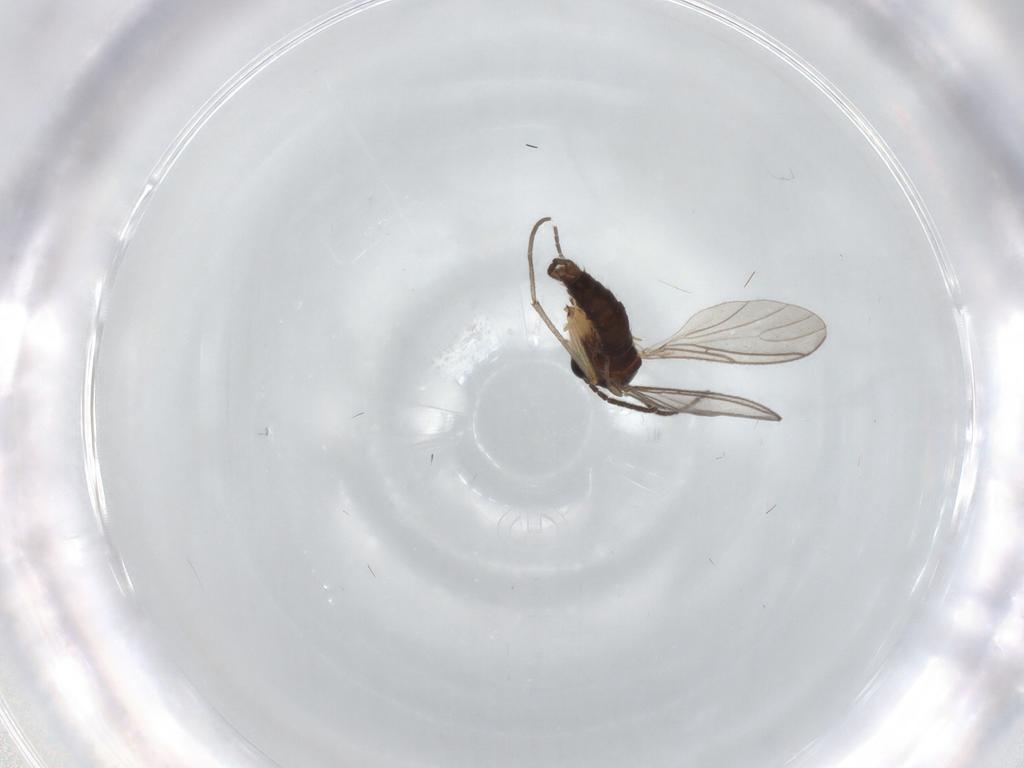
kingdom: Animalia
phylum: Arthropoda
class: Insecta
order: Diptera
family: Sciaridae
